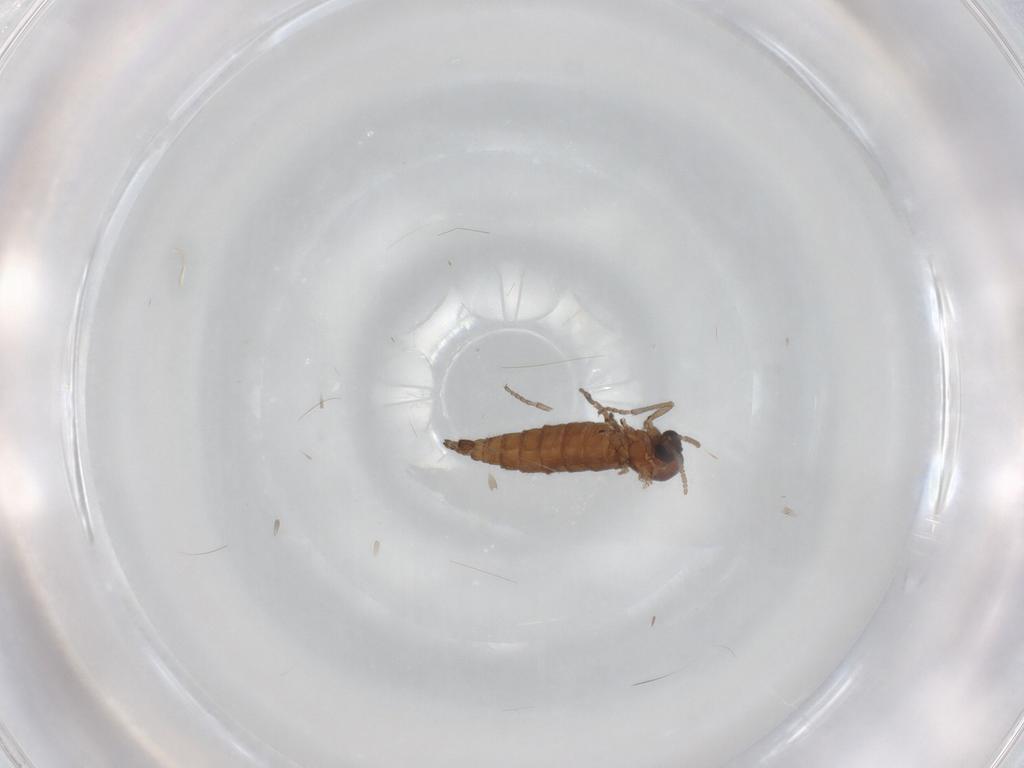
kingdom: Animalia
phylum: Arthropoda
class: Insecta
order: Diptera
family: Sciaridae
